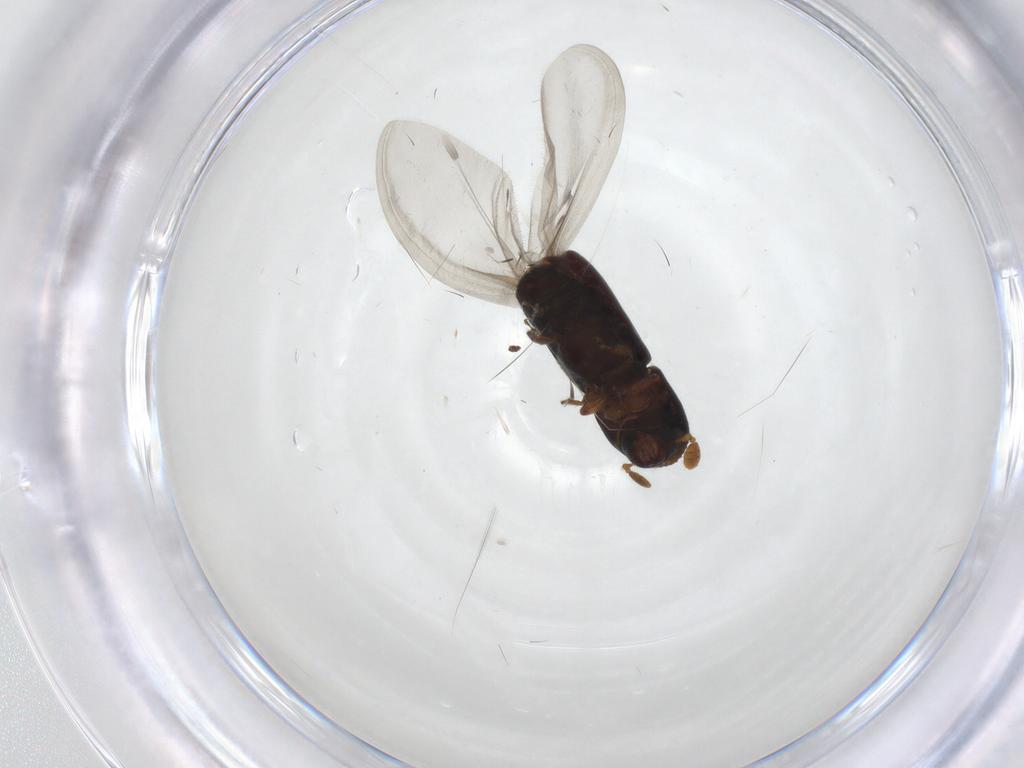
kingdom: Animalia
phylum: Arthropoda
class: Insecta
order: Coleoptera
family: Curculionidae
